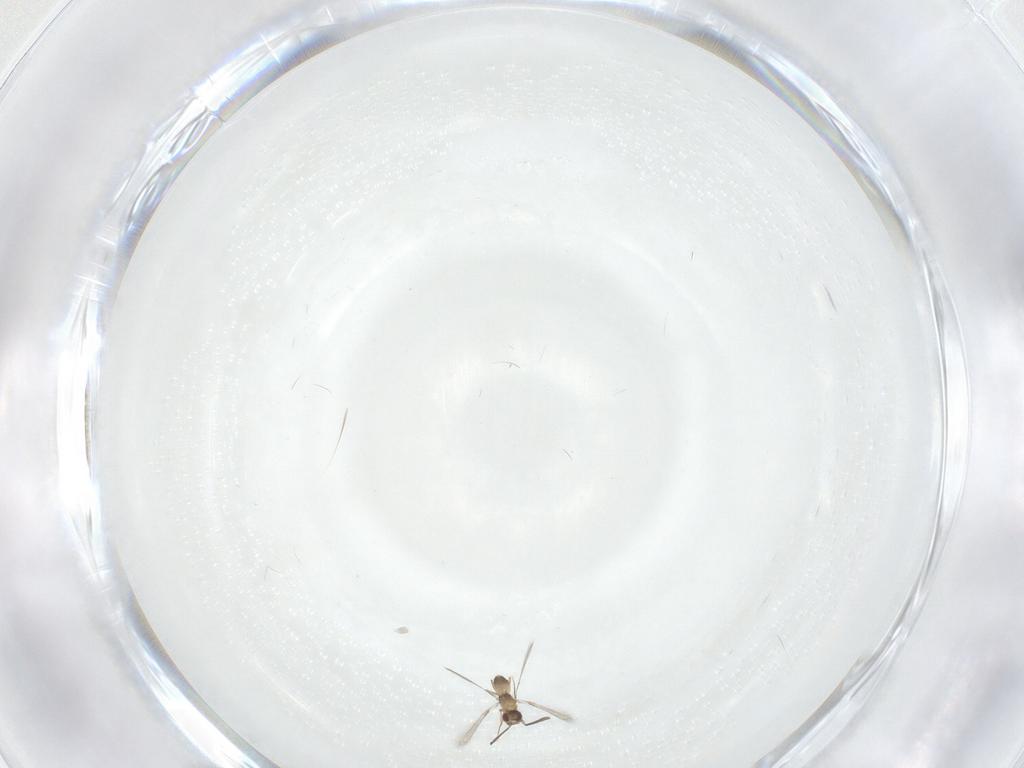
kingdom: Animalia
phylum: Arthropoda
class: Insecta
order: Hymenoptera
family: Mymaridae
